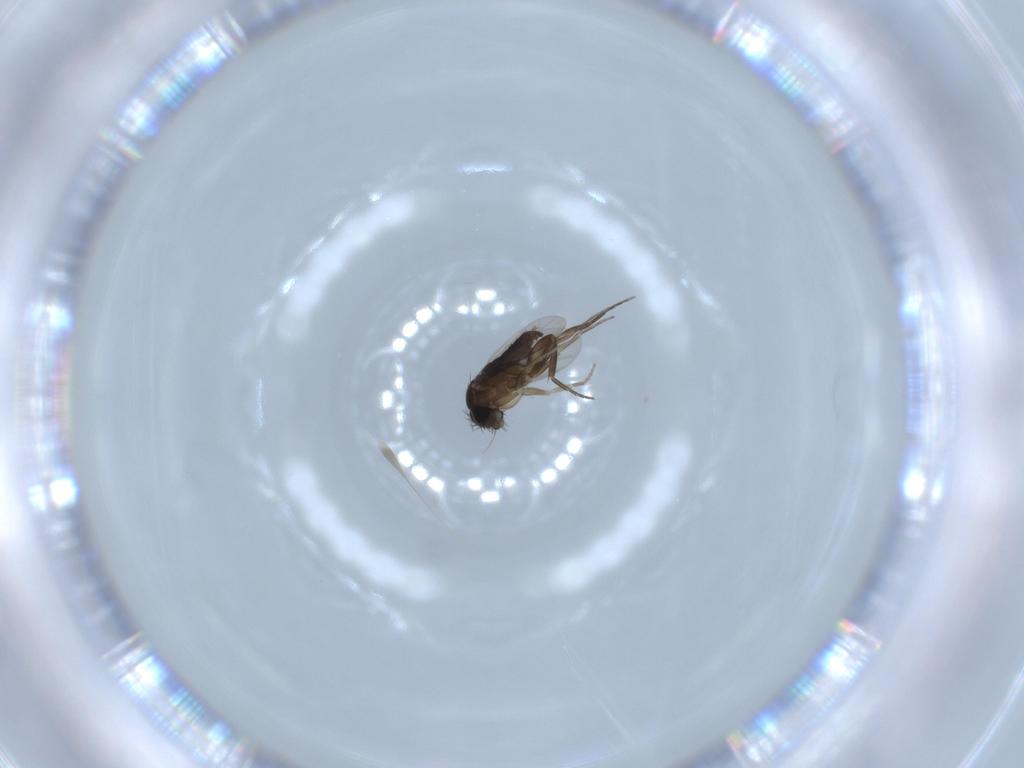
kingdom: Animalia
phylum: Arthropoda
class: Insecta
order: Diptera
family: Phoridae
